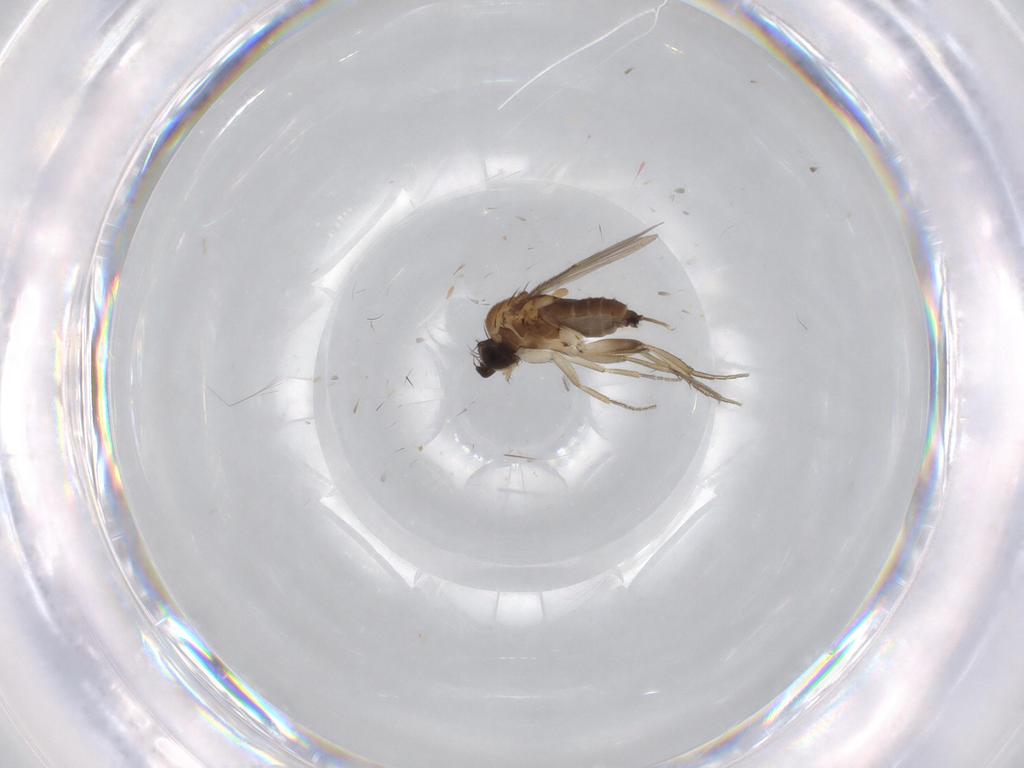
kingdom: Animalia
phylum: Arthropoda
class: Insecta
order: Diptera
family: Phoridae
